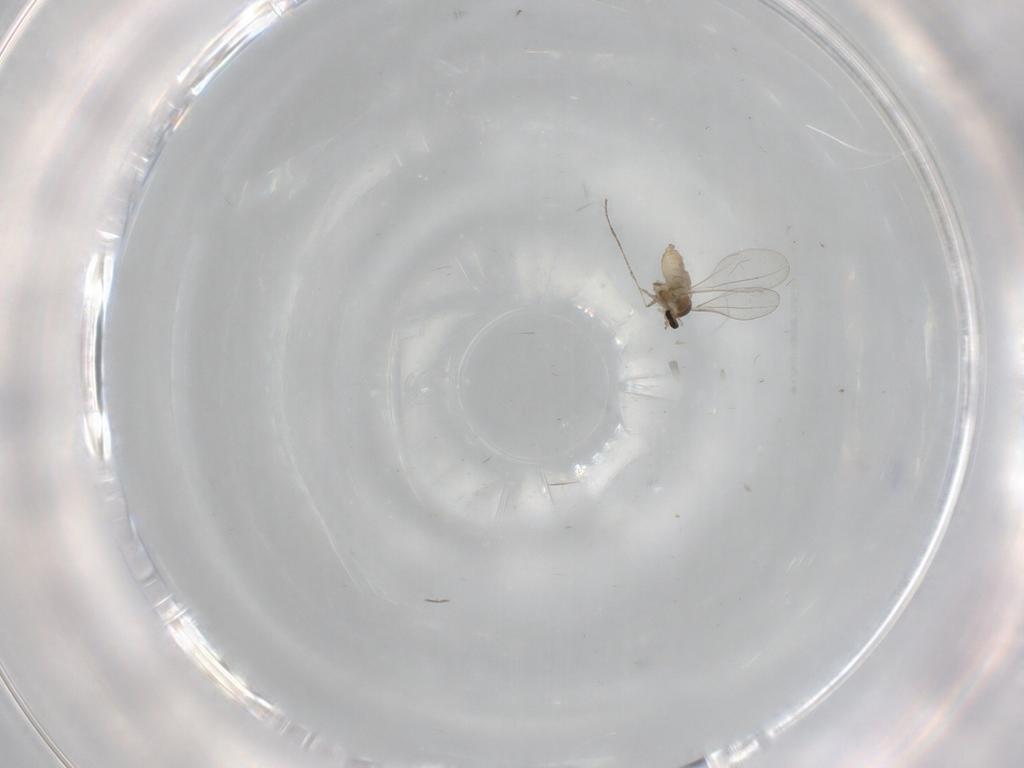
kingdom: Animalia
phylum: Arthropoda
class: Insecta
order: Diptera
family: Cecidomyiidae
